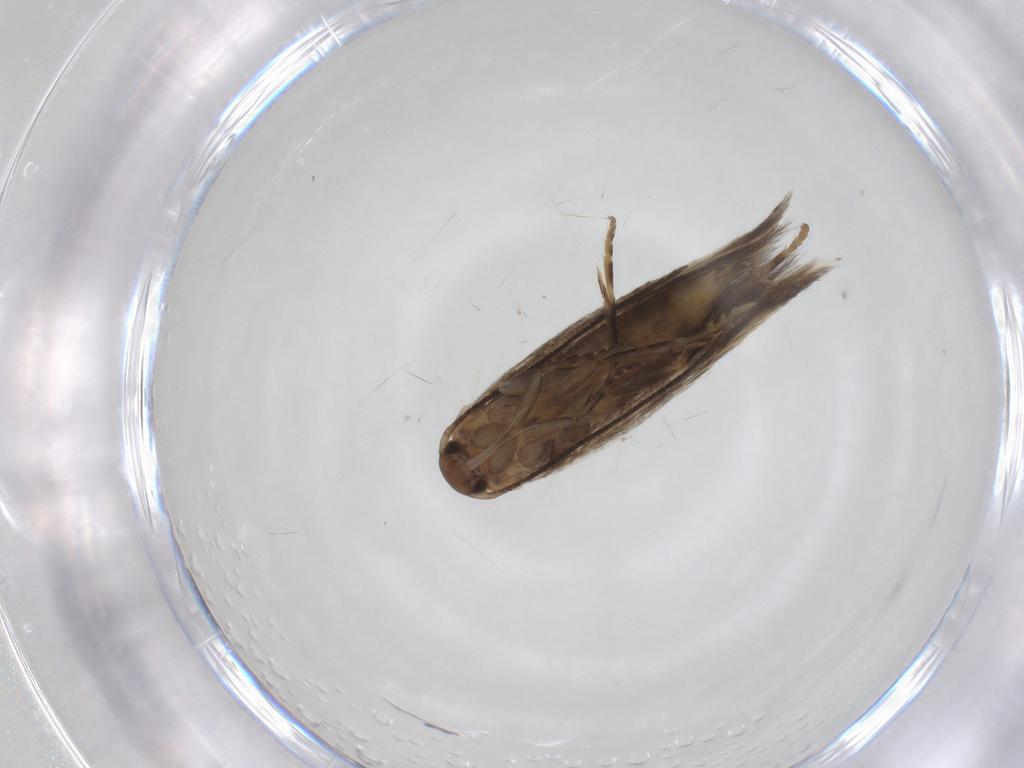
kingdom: Animalia
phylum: Arthropoda
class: Insecta
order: Lepidoptera
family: Elachistidae
